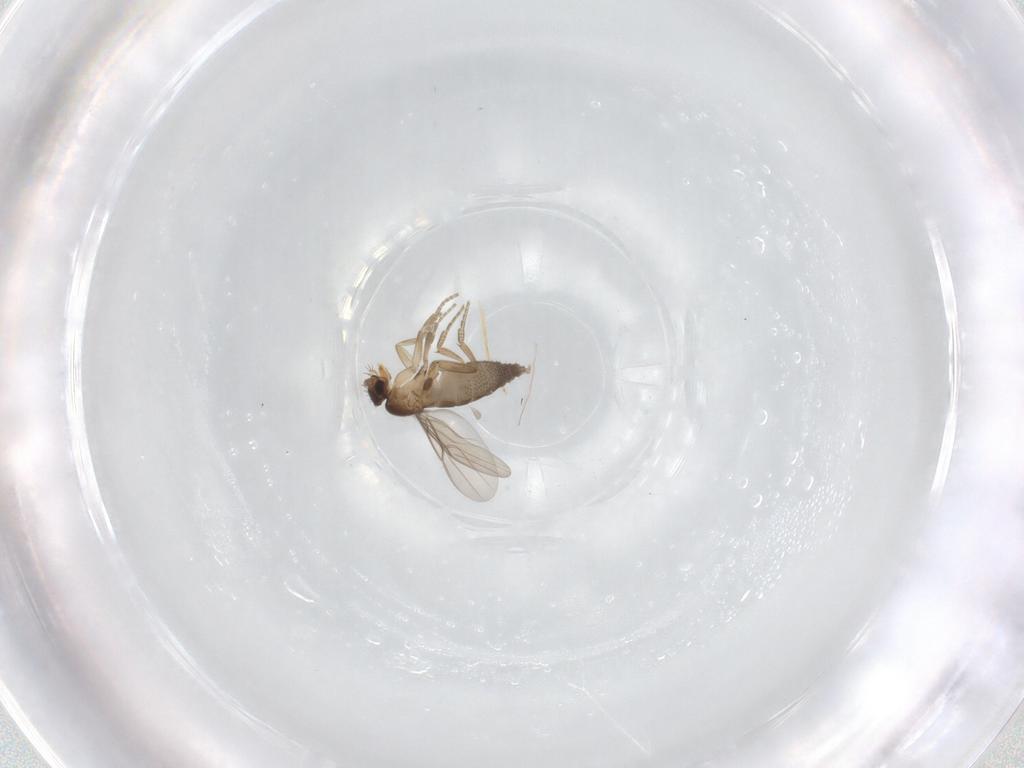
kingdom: Animalia
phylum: Arthropoda
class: Insecta
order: Diptera
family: Phoridae
